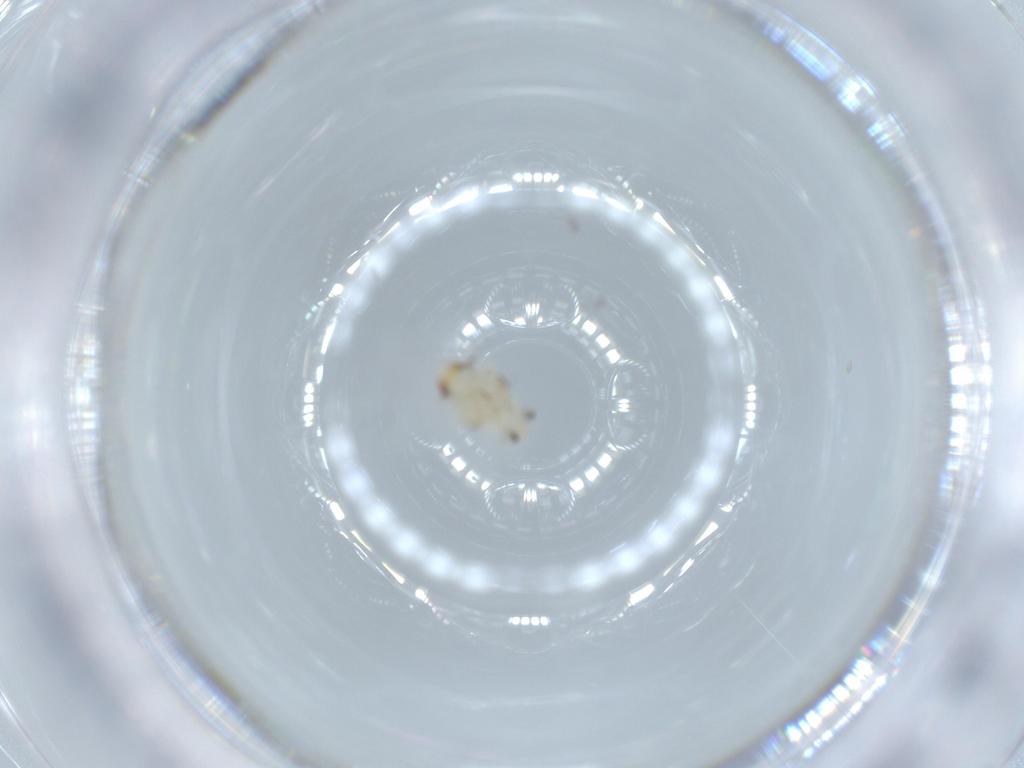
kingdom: Animalia
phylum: Arthropoda
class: Insecta
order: Hemiptera
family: Nogodinidae
